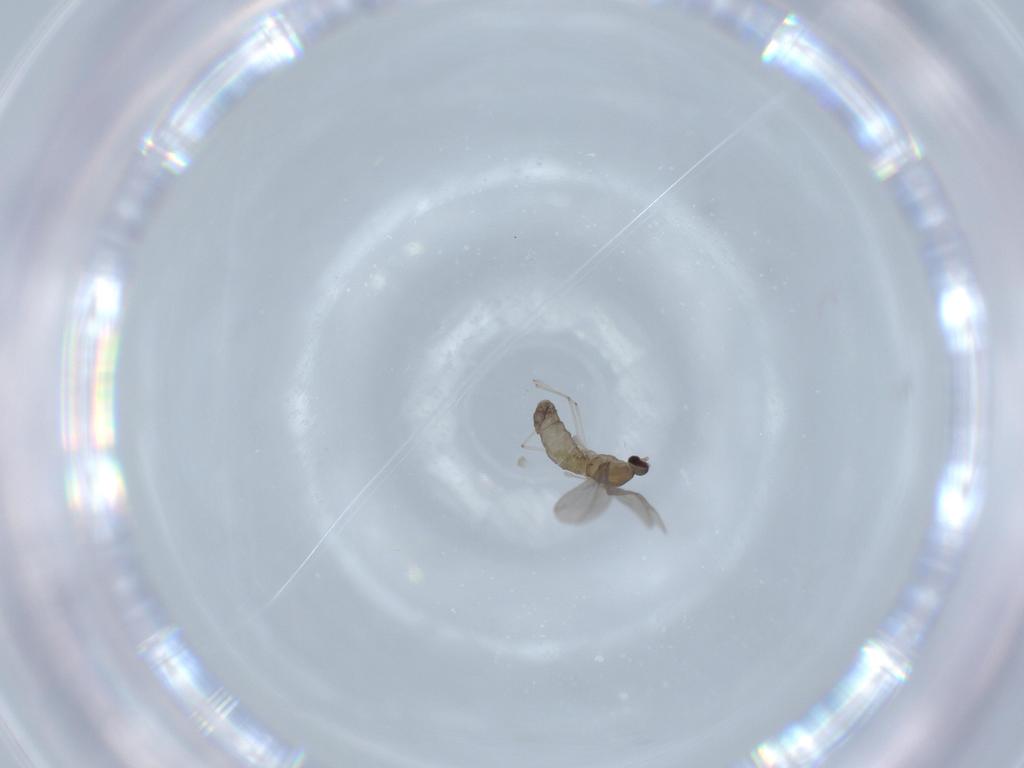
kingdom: Animalia
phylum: Arthropoda
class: Insecta
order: Diptera
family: Cecidomyiidae
